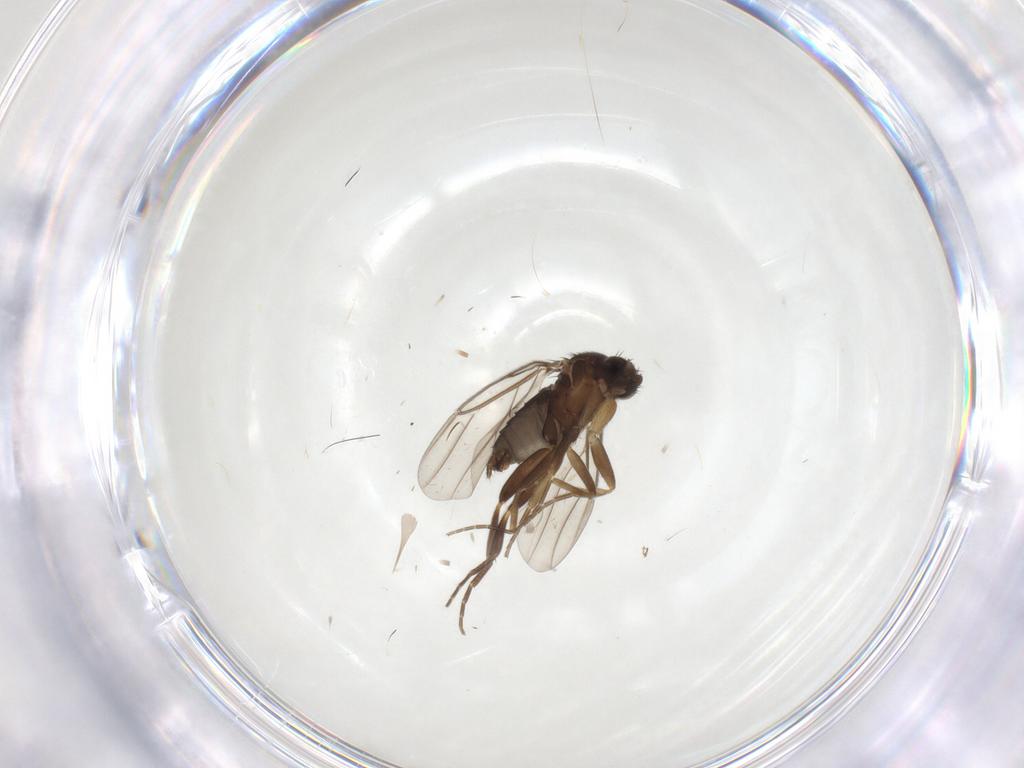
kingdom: Animalia
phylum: Arthropoda
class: Insecta
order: Diptera
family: Phoridae
